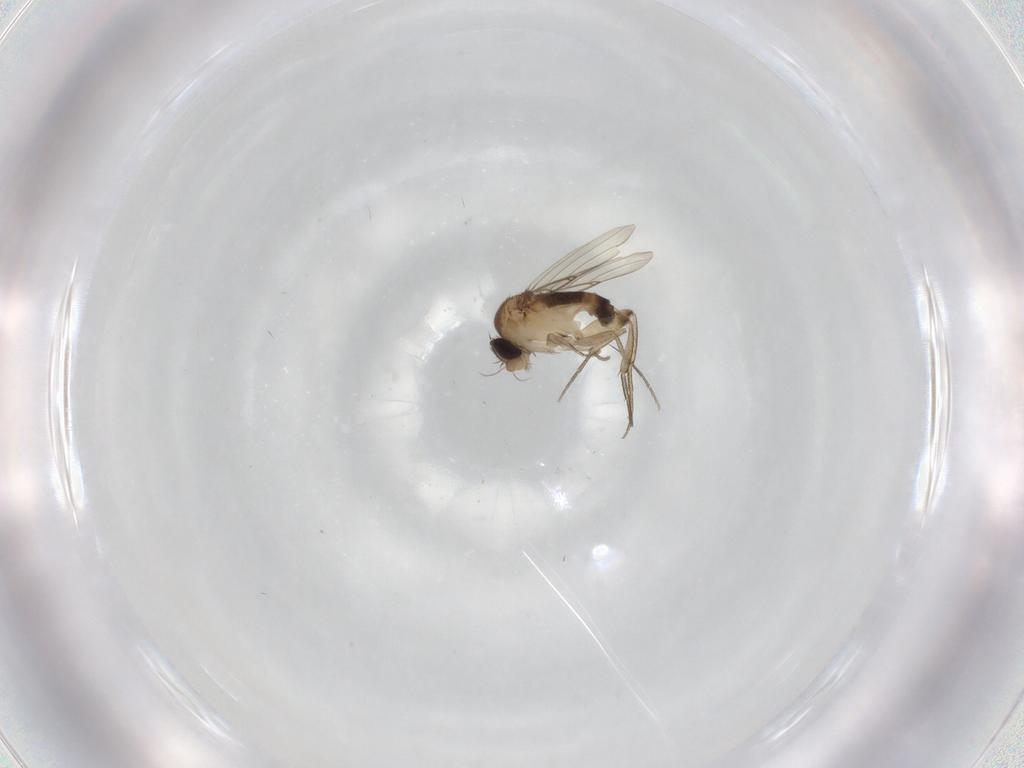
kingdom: Animalia
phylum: Arthropoda
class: Insecta
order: Diptera
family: Phoridae
